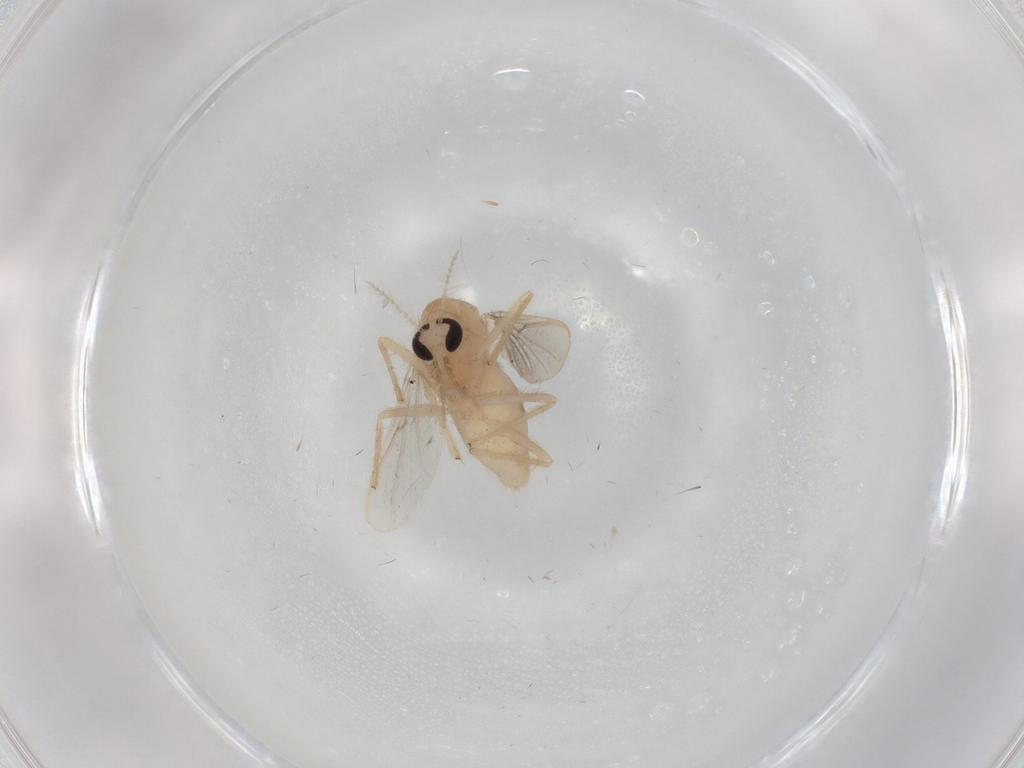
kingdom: Animalia
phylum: Arthropoda
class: Insecta
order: Diptera
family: Chironomidae
